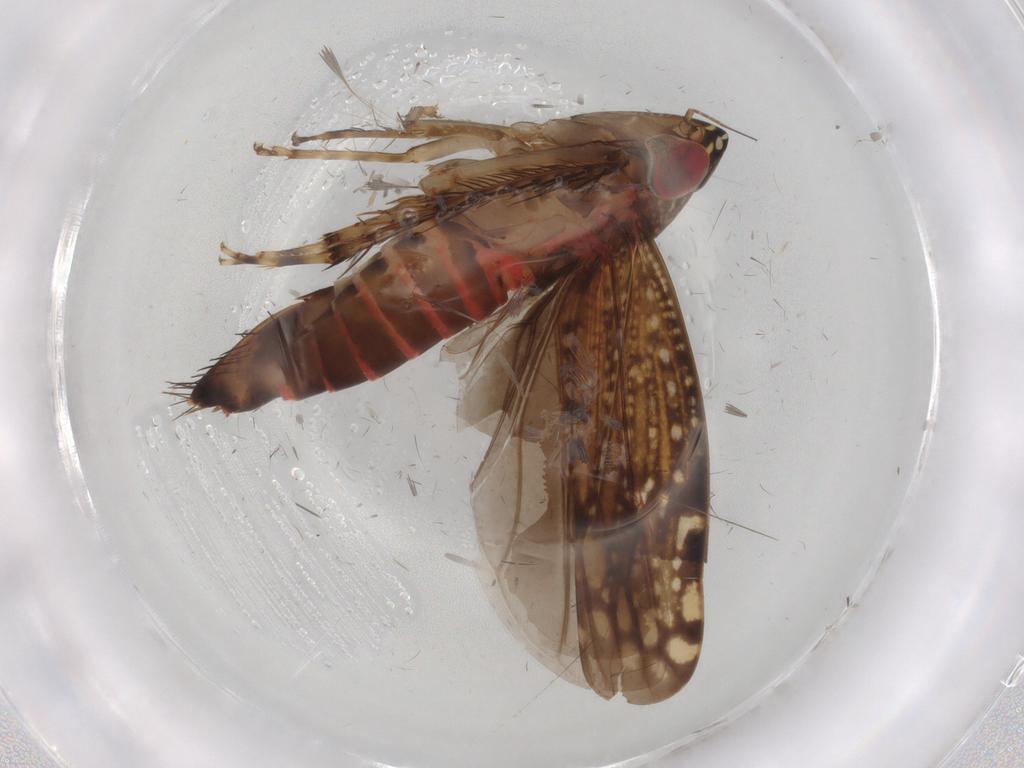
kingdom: Animalia
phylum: Arthropoda
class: Insecta
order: Hemiptera
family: Cicadellidae
